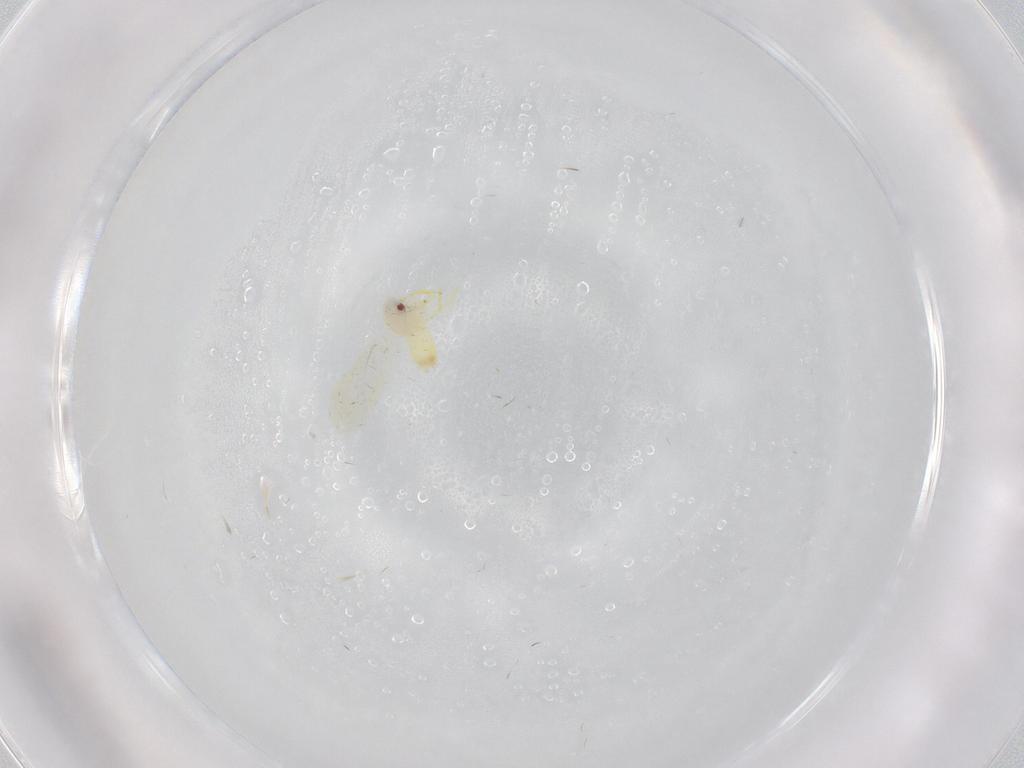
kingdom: Animalia
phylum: Arthropoda
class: Insecta
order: Hemiptera
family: Aleyrodidae
